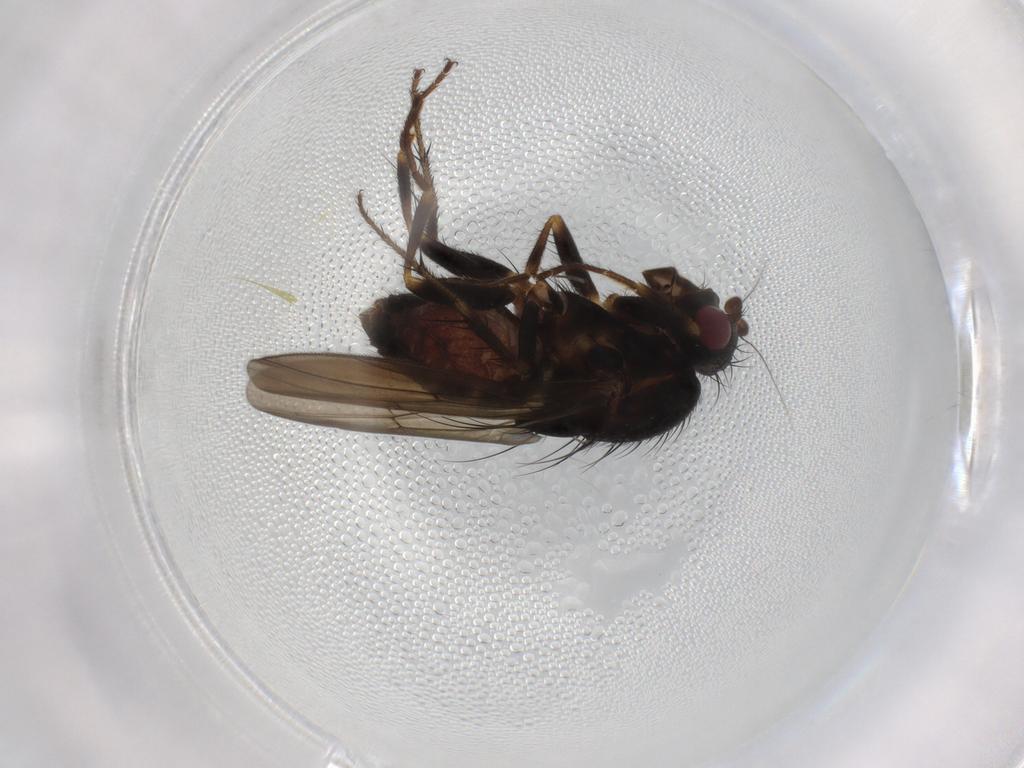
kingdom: Animalia
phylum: Arthropoda
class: Insecta
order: Diptera
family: Sphaeroceridae
